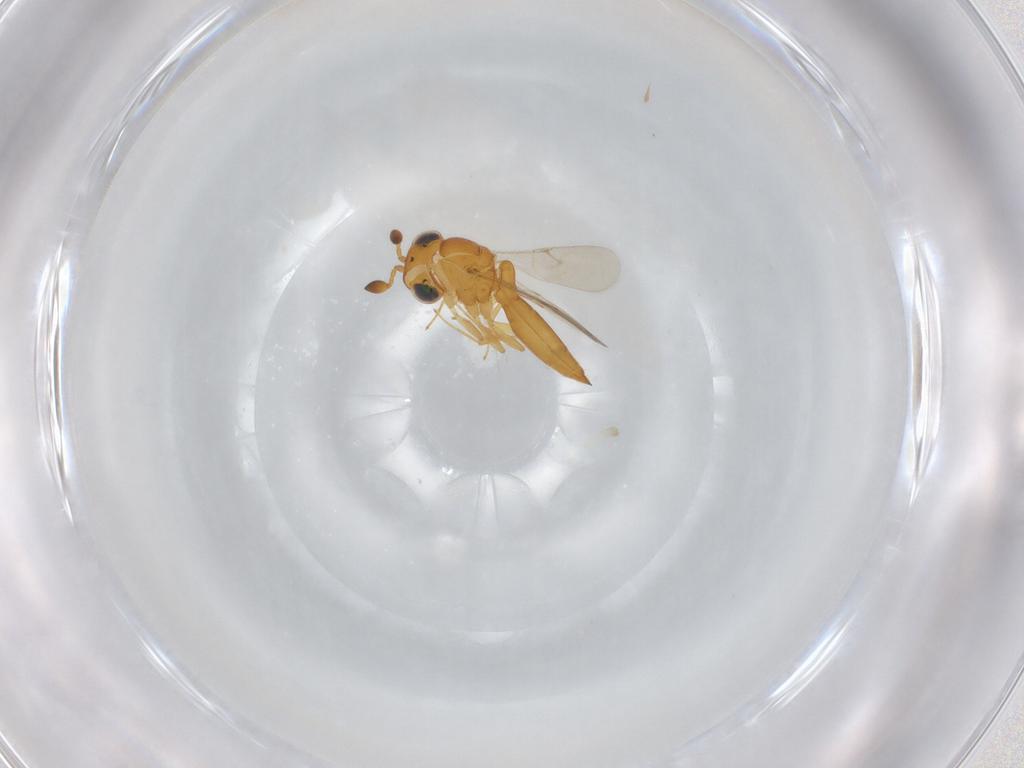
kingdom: Animalia
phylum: Arthropoda
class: Insecta
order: Hymenoptera
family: Scelionidae
